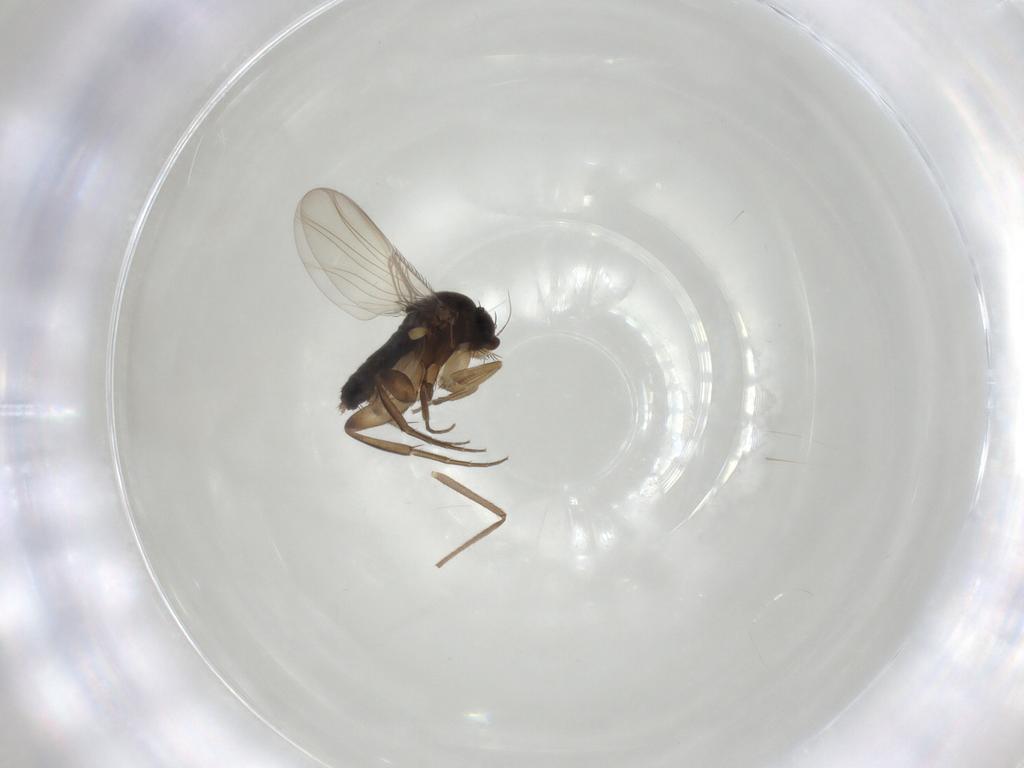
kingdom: Animalia
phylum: Arthropoda
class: Insecta
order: Diptera
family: Phoridae
